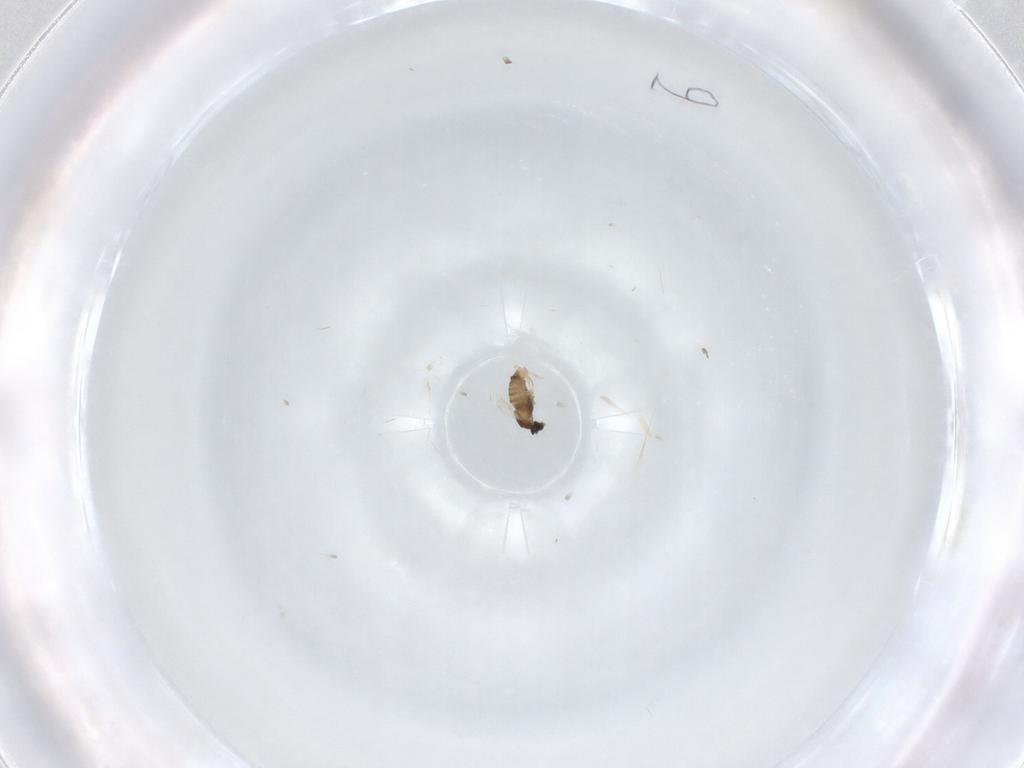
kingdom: Animalia
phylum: Arthropoda
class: Insecta
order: Diptera
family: Cecidomyiidae
